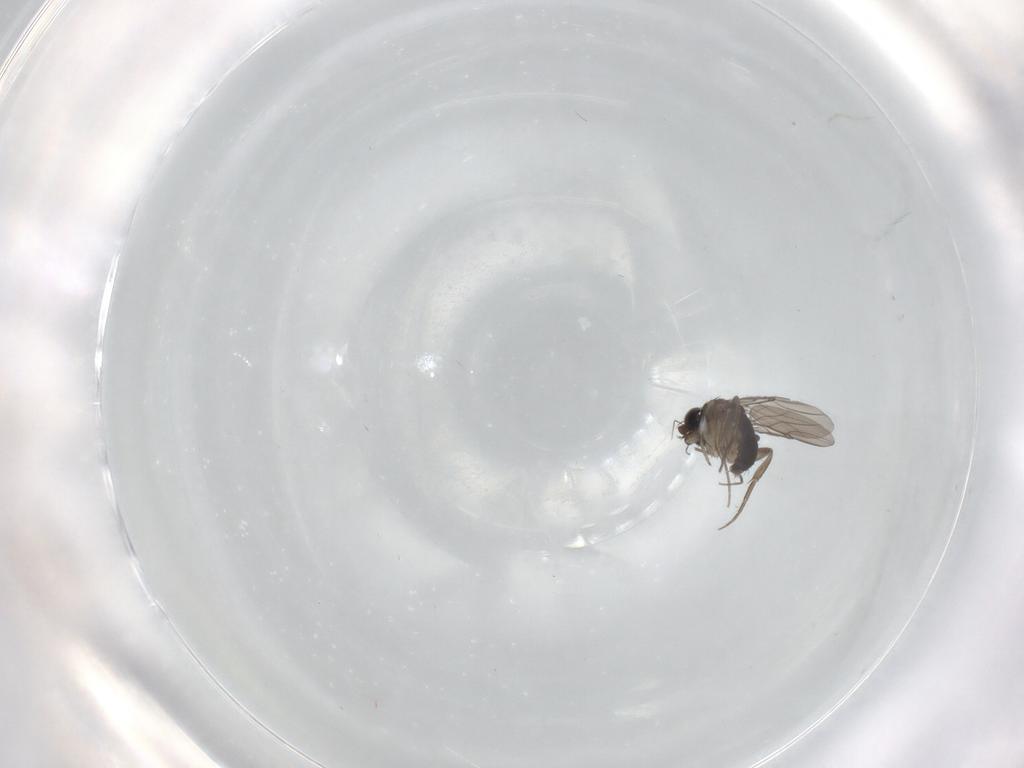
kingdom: Animalia
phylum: Arthropoda
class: Insecta
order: Diptera
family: Phoridae
